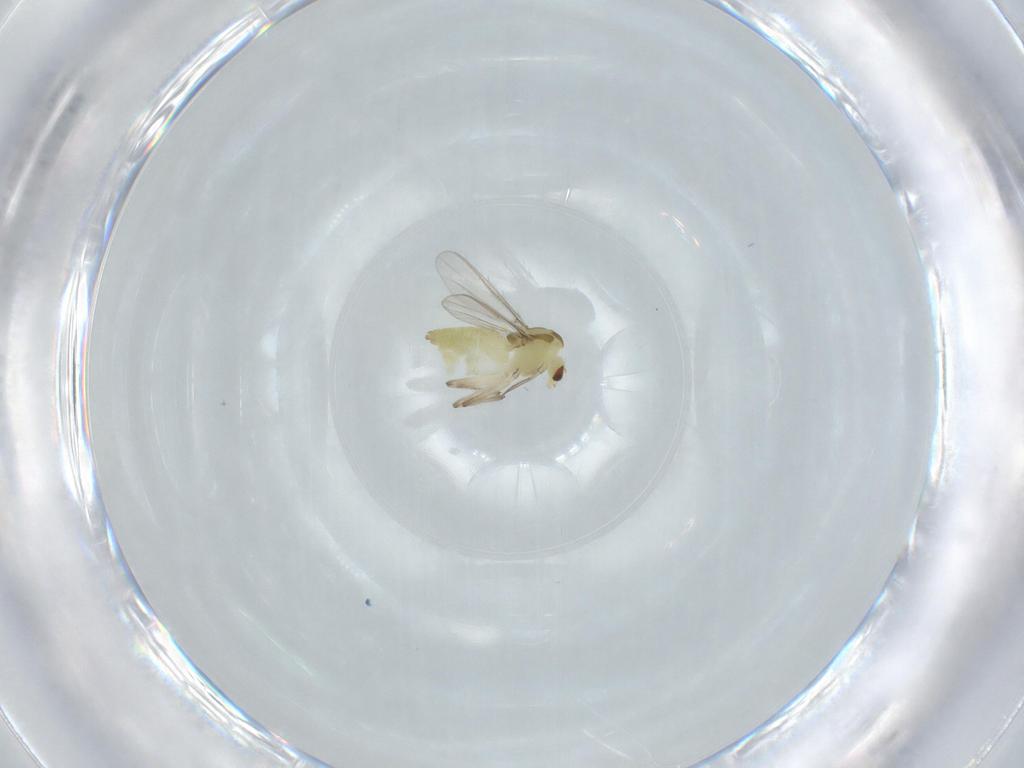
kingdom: Animalia
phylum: Arthropoda
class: Insecta
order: Diptera
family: Chironomidae
